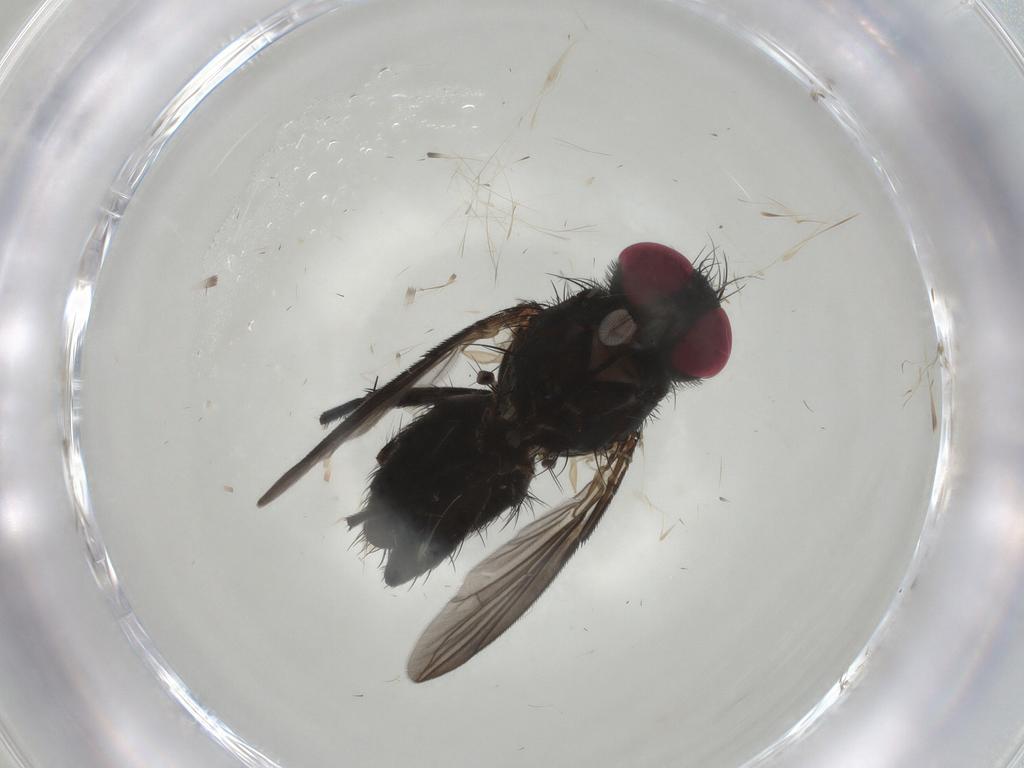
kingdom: Animalia
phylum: Arthropoda
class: Insecta
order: Diptera
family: Calliphoridae
